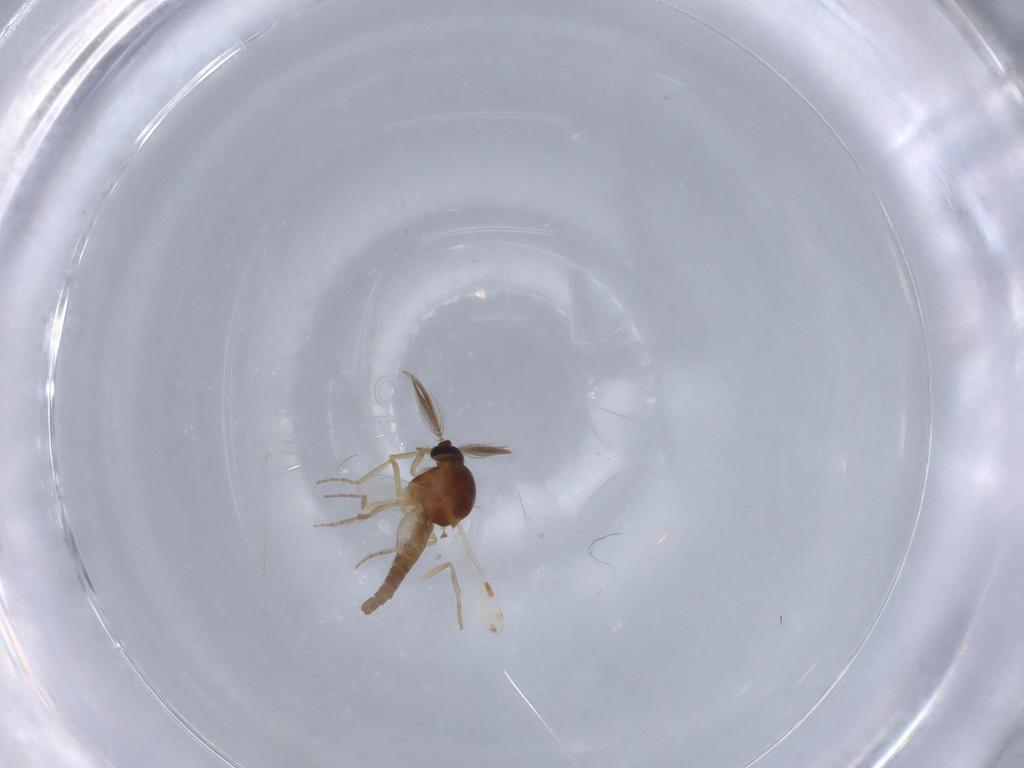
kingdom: Animalia
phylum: Arthropoda
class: Insecta
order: Diptera
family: Ceratopogonidae
